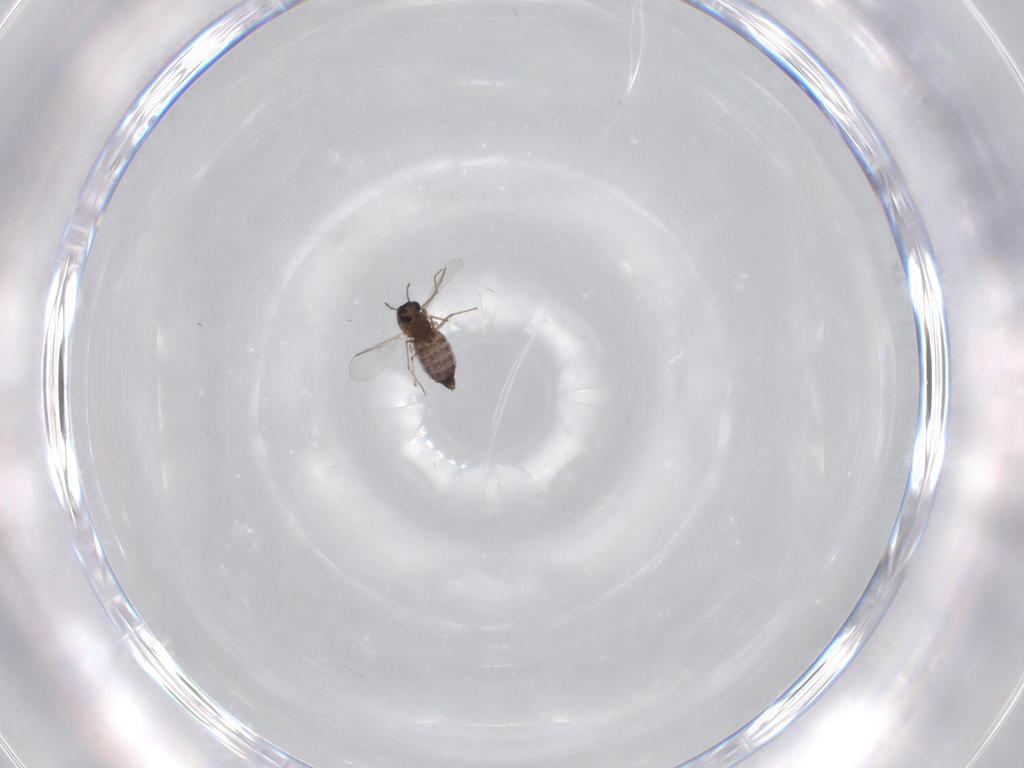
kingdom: Animalia
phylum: Arthropoda
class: Insecta
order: Diptera
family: Chironomidae
